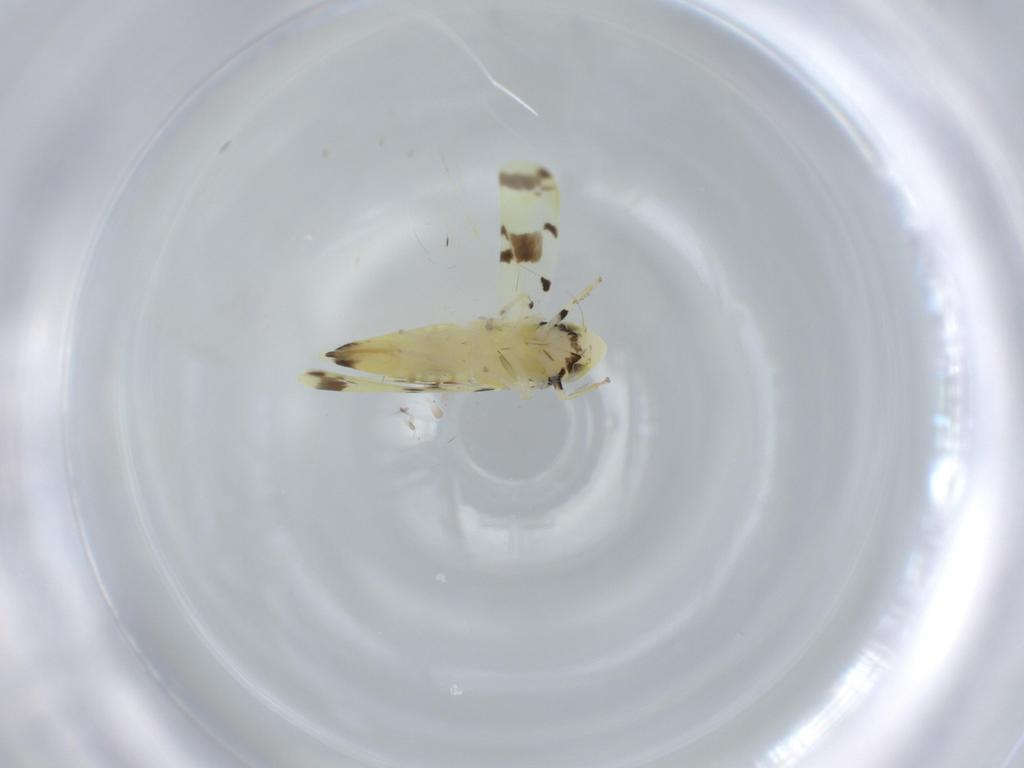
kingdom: Animalia
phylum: Arthropoda
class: Insecta
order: Hemiptera
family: Cicadellidae
